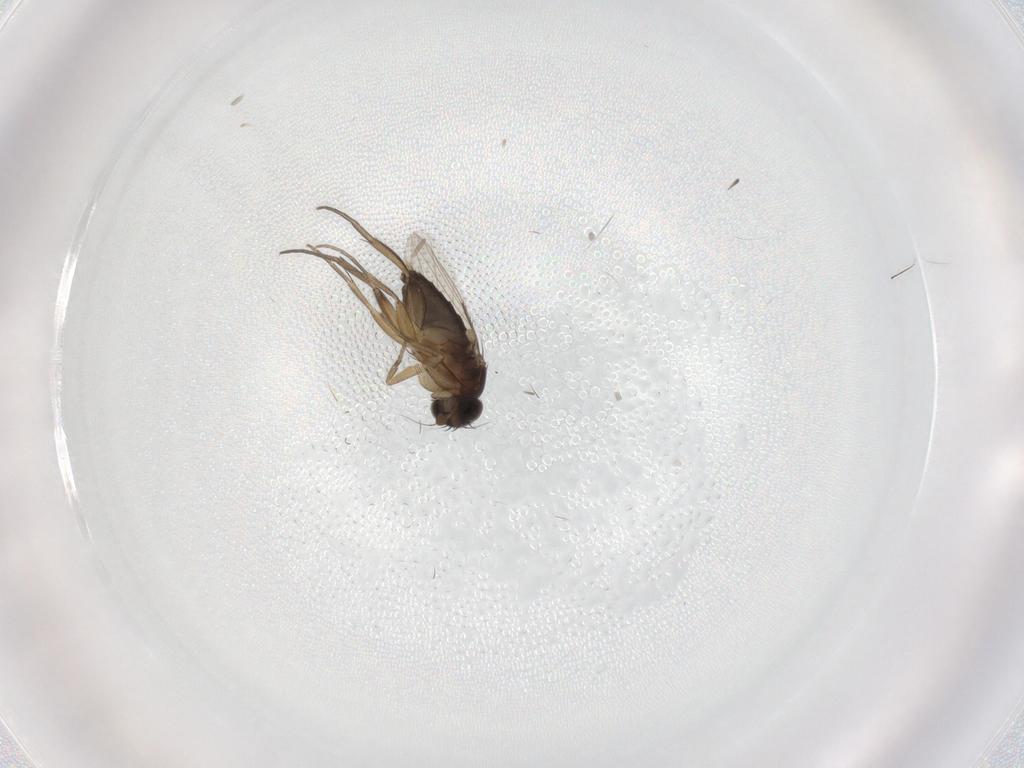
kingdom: Animalia
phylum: Arthropoda
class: Insecta
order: Diptera
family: Phoridae
